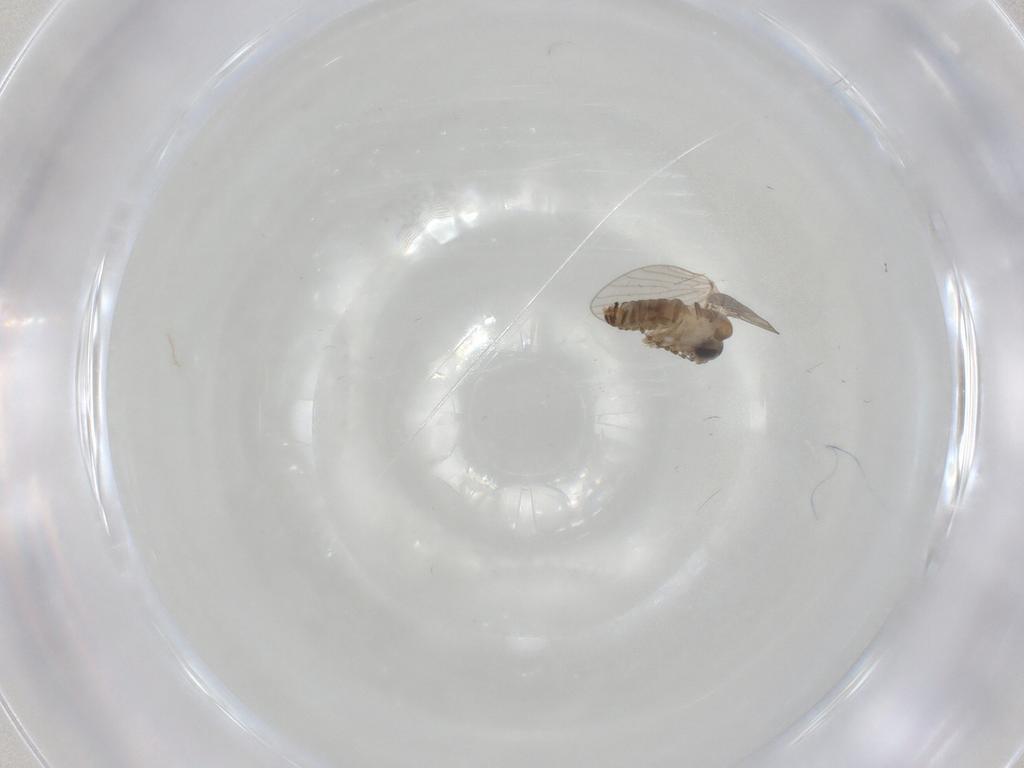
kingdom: Animalia
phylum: Arthropoda
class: Insecta
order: Diptera
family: Cecidomyiidae
